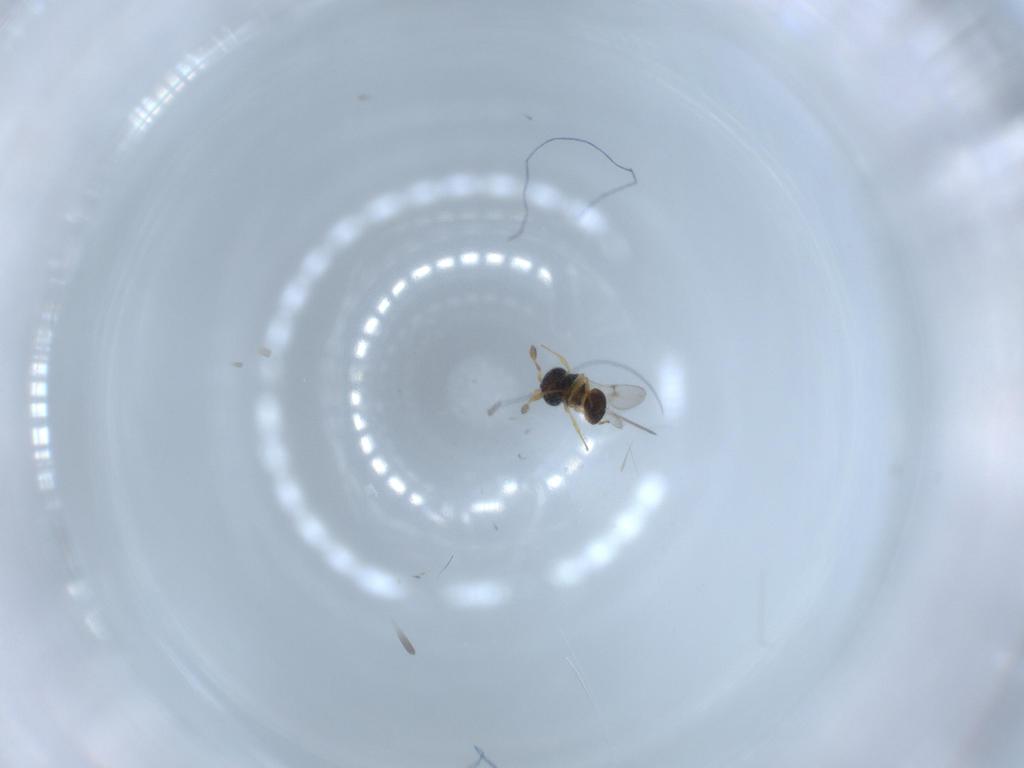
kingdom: Animalia
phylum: Arthropoda
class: Insecta
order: Hymenoptera
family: Scelionidae
